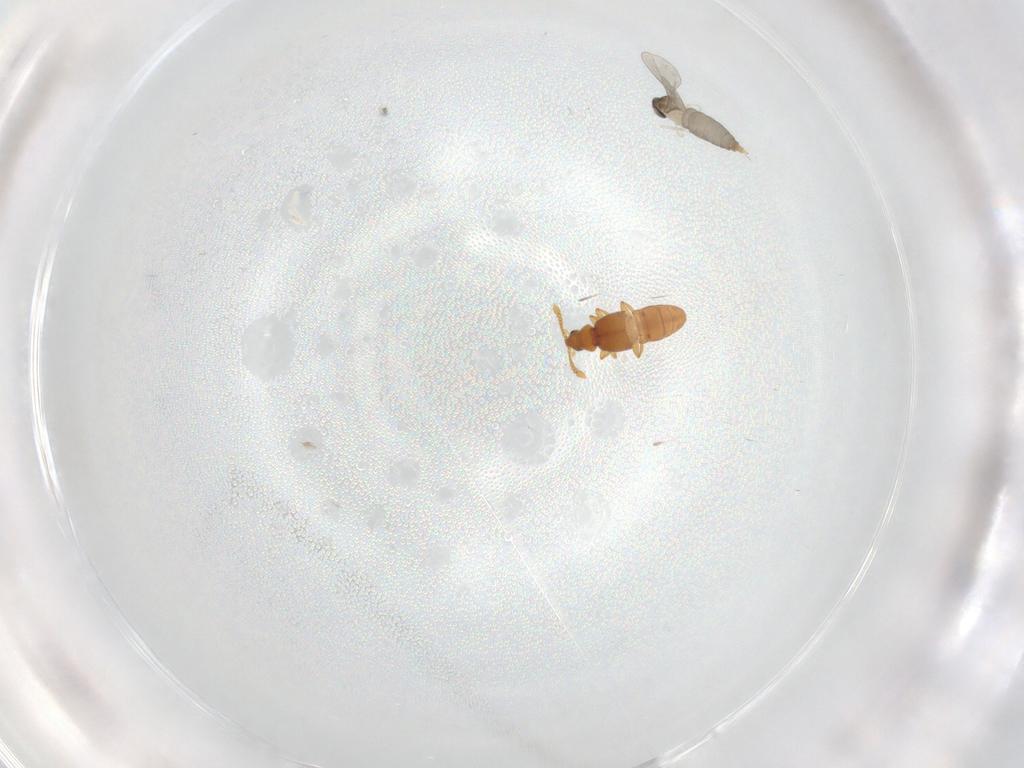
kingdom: Animalia
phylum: Arthropoda
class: Insecta
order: Coleoptera
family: Staphylinidae
